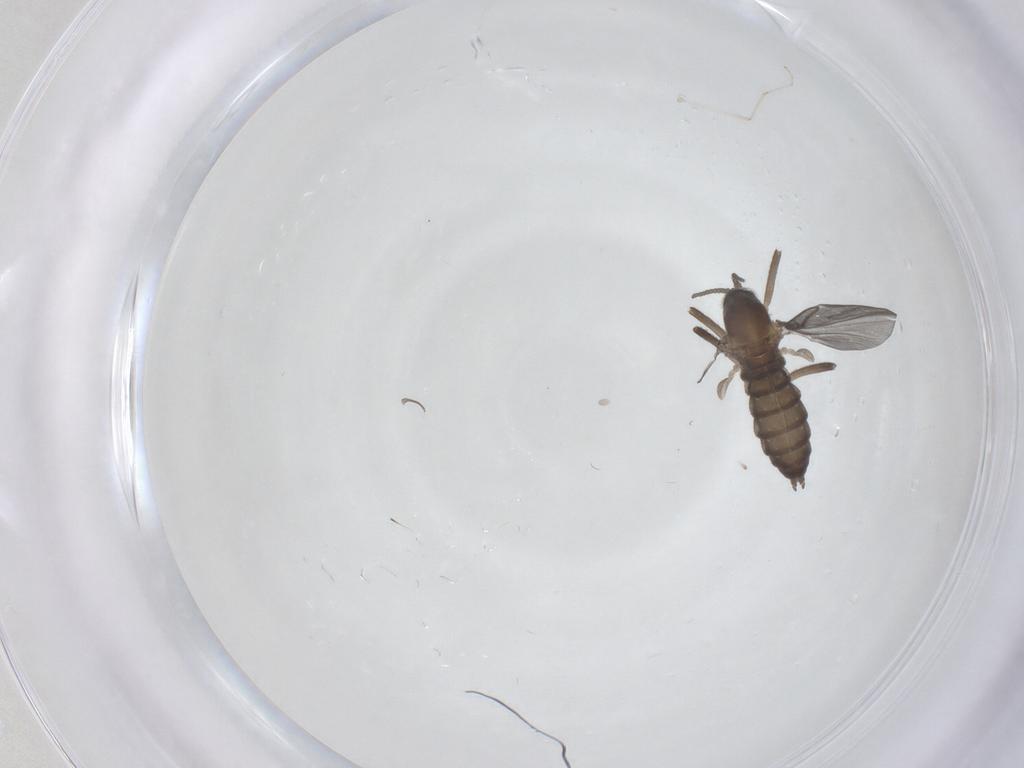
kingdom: Animalia
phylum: Arthropoda
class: Insecta
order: Diptera
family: Cecidomyiidae
